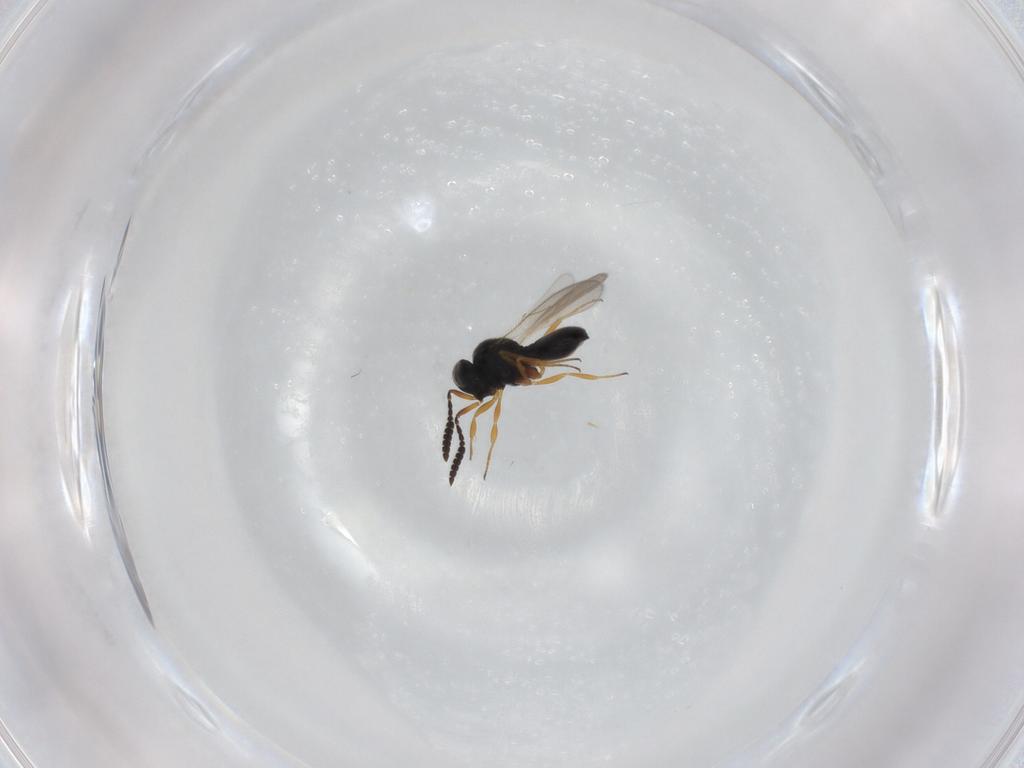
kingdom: Animalia
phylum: Arthropoda
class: Insecta
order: Hymenoptera
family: Scelionidae
